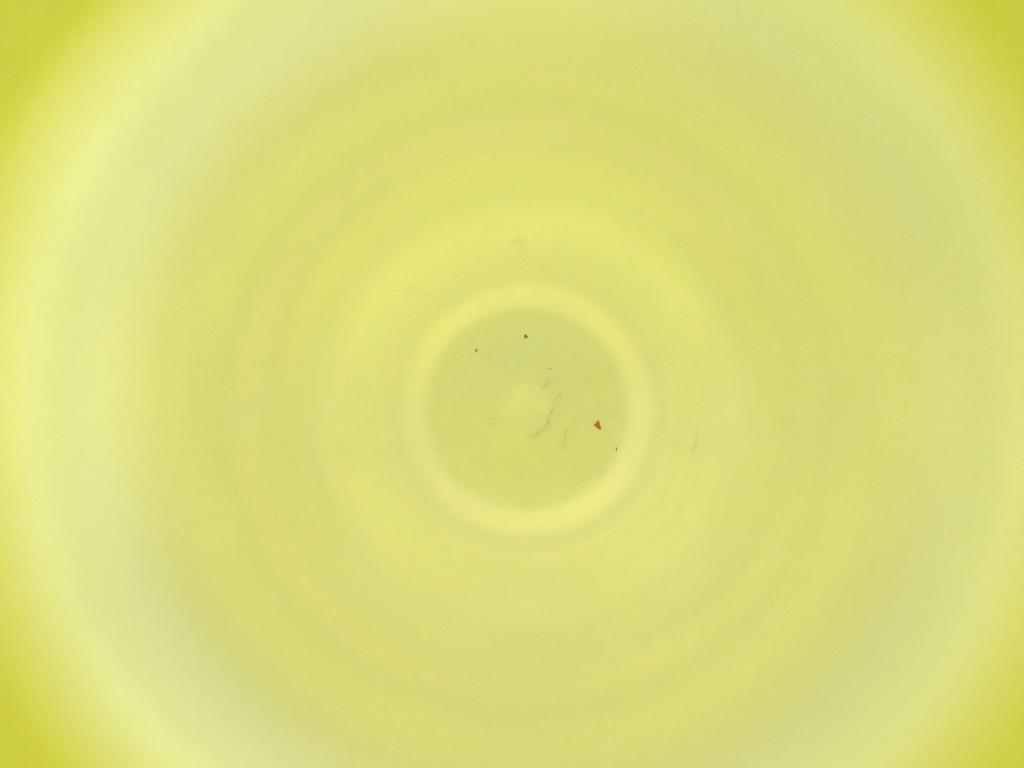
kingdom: Animalia
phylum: Arthropoda
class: Insecta
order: Diptera
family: Cecidomyiidae
